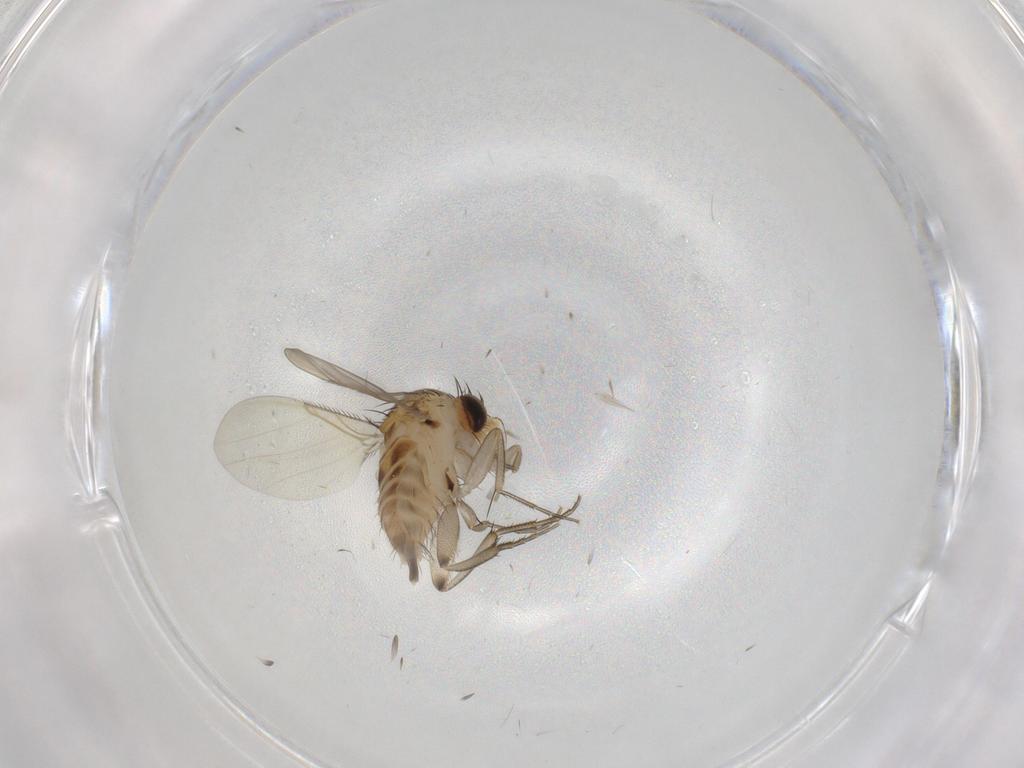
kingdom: Animalia
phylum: Arthropoda
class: Insecta
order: Diptera
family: Phoridae
